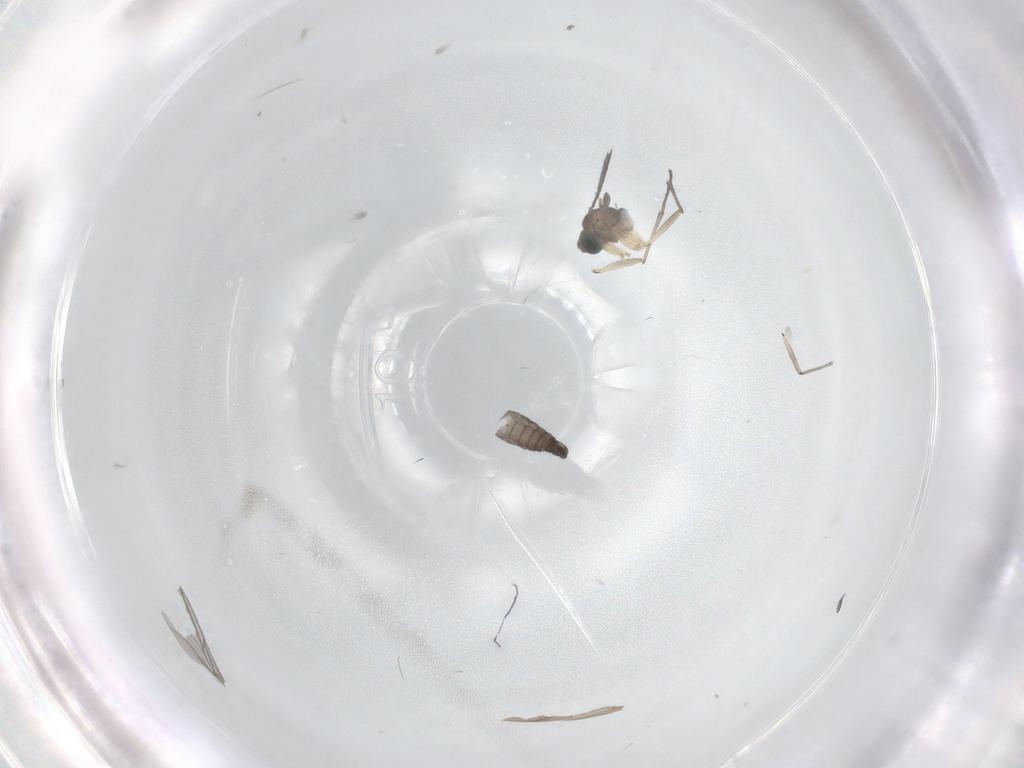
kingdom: Animalia
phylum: Arthropoda
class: Insecta
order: Diptera
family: Sciaridae
